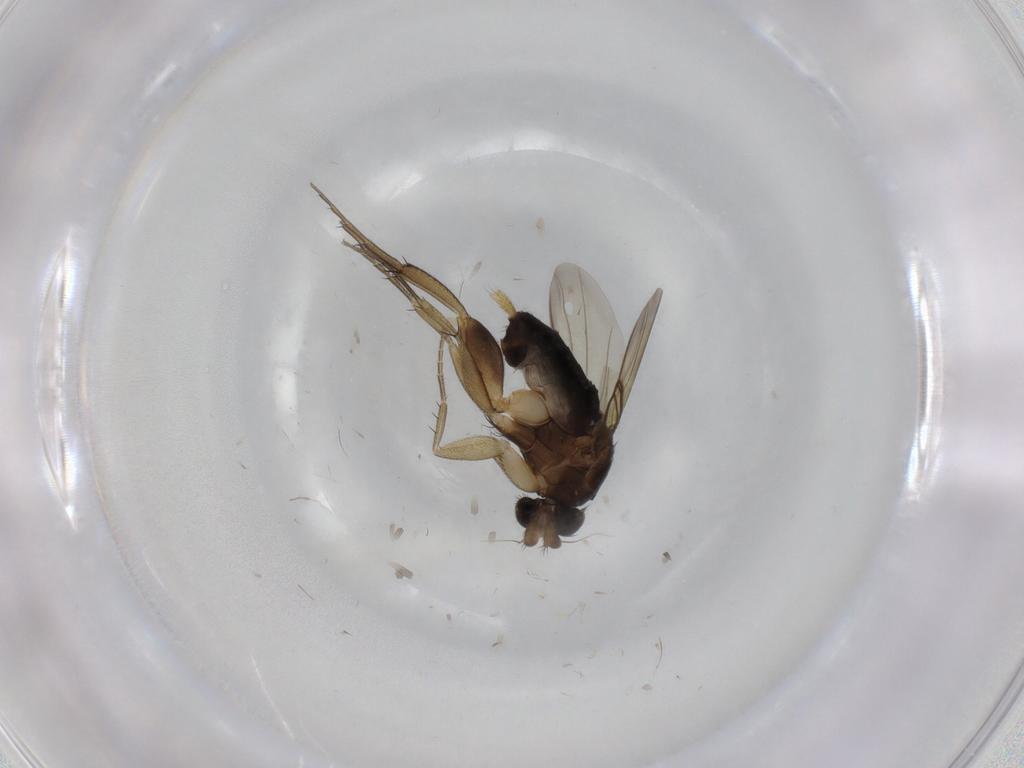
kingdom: Animalia
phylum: Arthropoda
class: Insecta
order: Diptera
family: Phoridae
